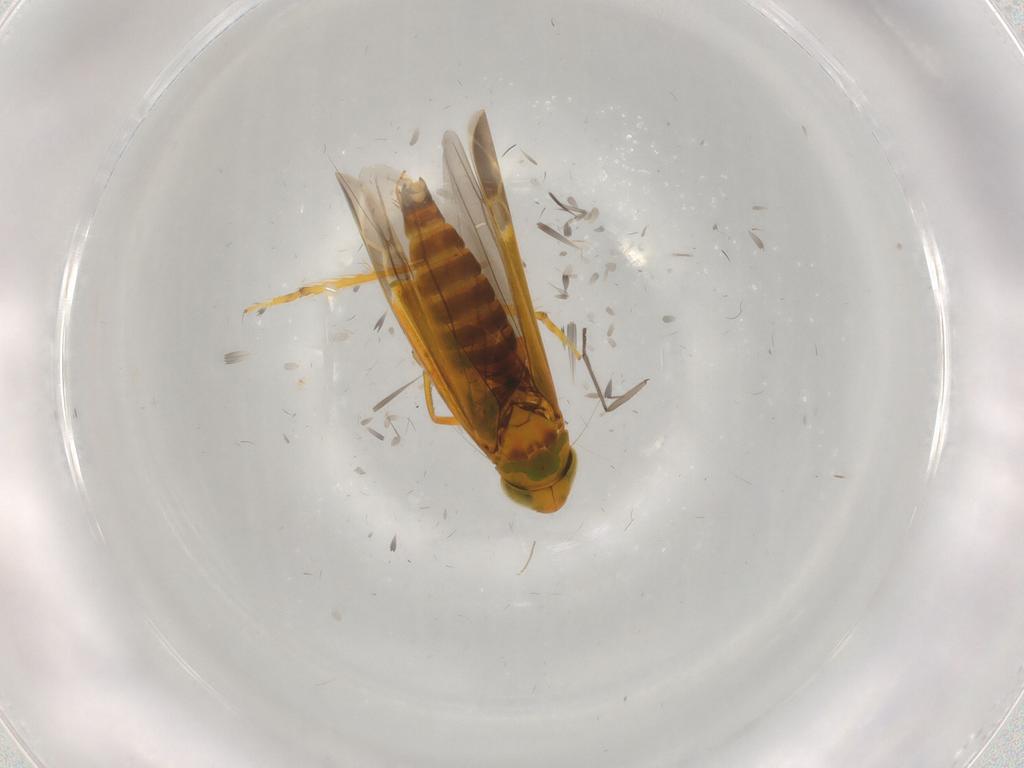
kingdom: Animalia
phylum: Arthropoda
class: Insecta
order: Hemiptera
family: Cicadellidae
